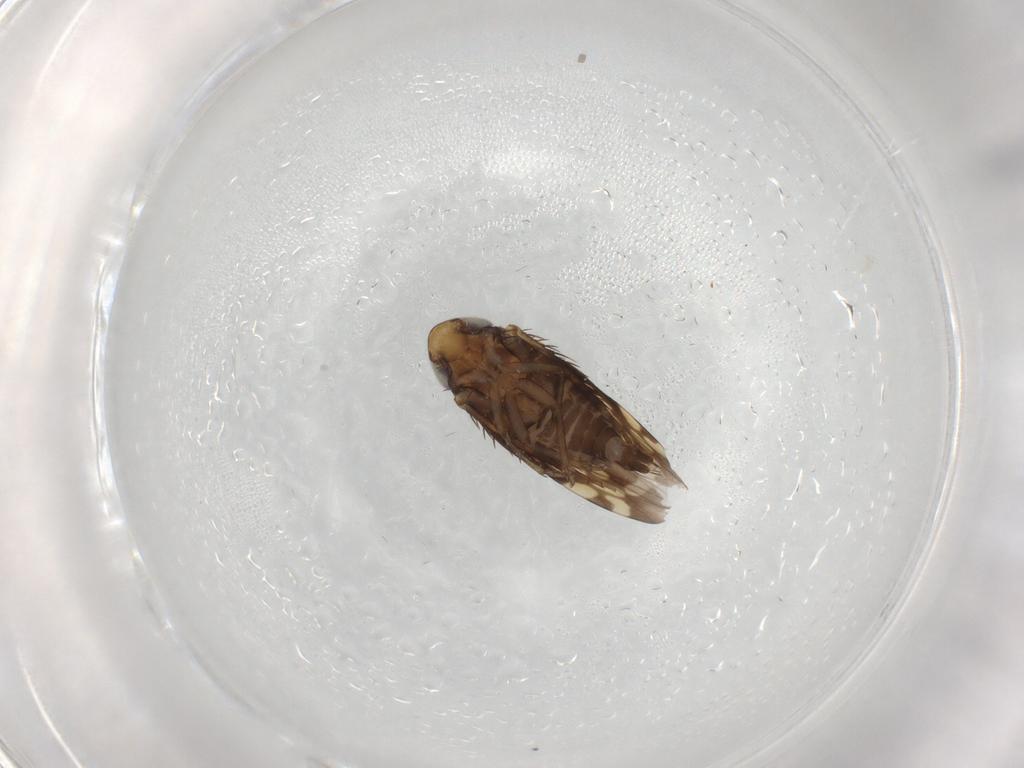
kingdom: Animalia
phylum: Arthropoda
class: Insecta
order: Hemiptera
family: Cicadellidae
